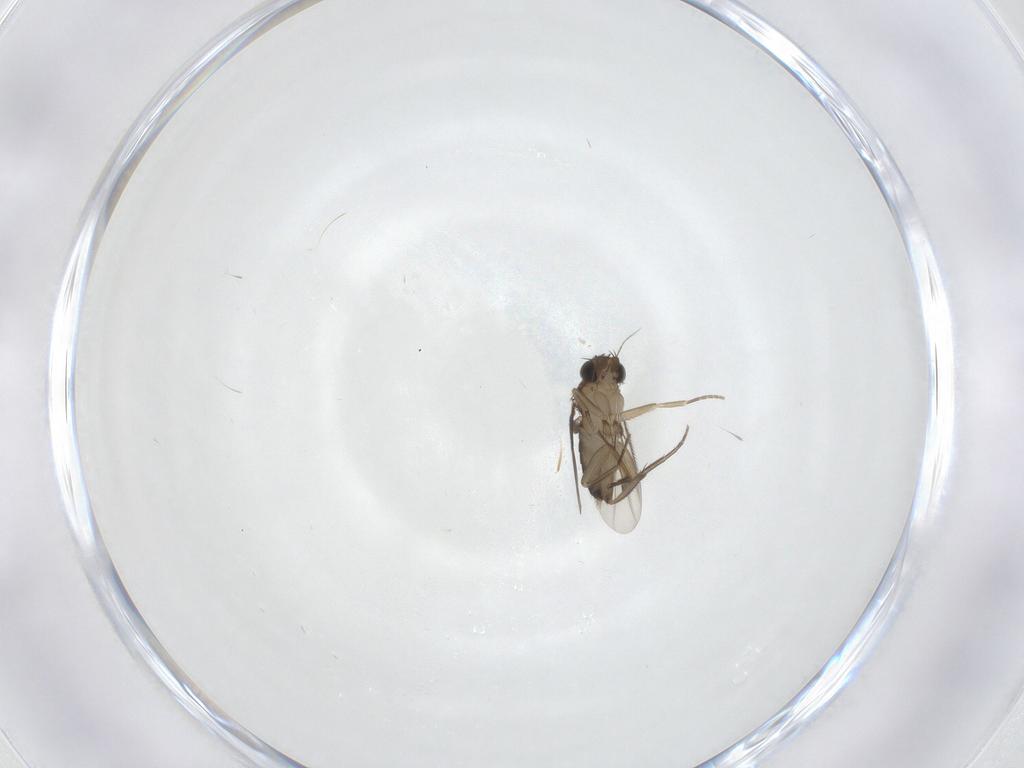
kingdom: Animalia
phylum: Arthropoda
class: Insecta
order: Diptera
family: Phoridae
